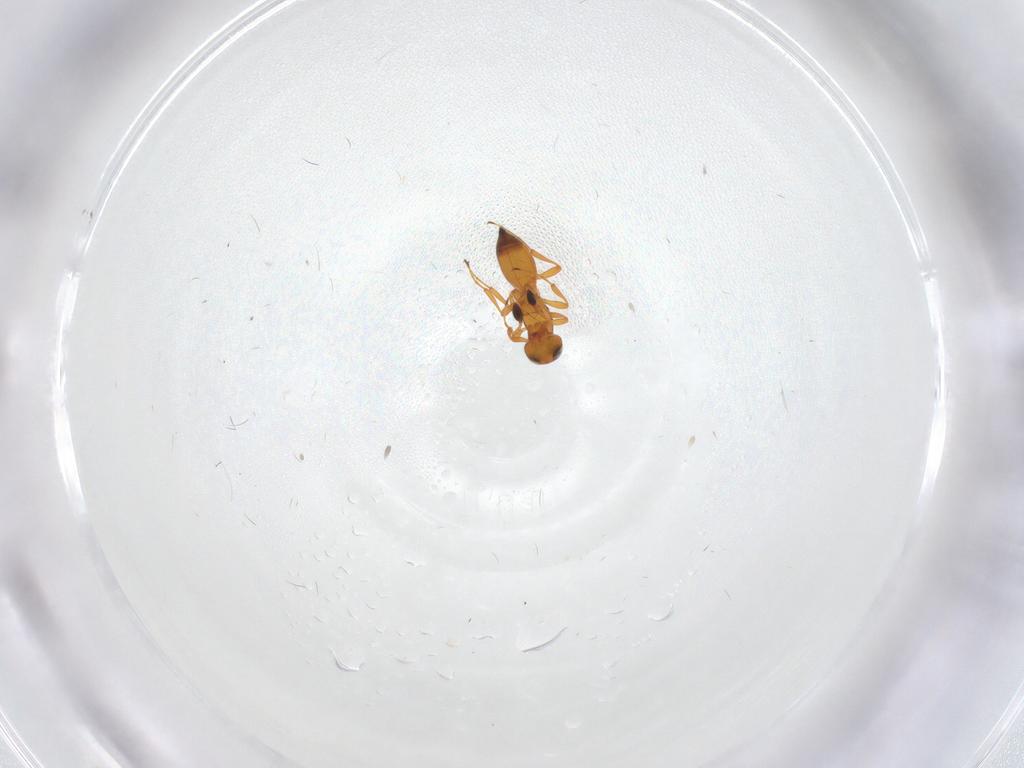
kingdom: Animalia
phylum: Arthropoda
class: Insecta
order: Hymenoptera
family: Platygastridae
